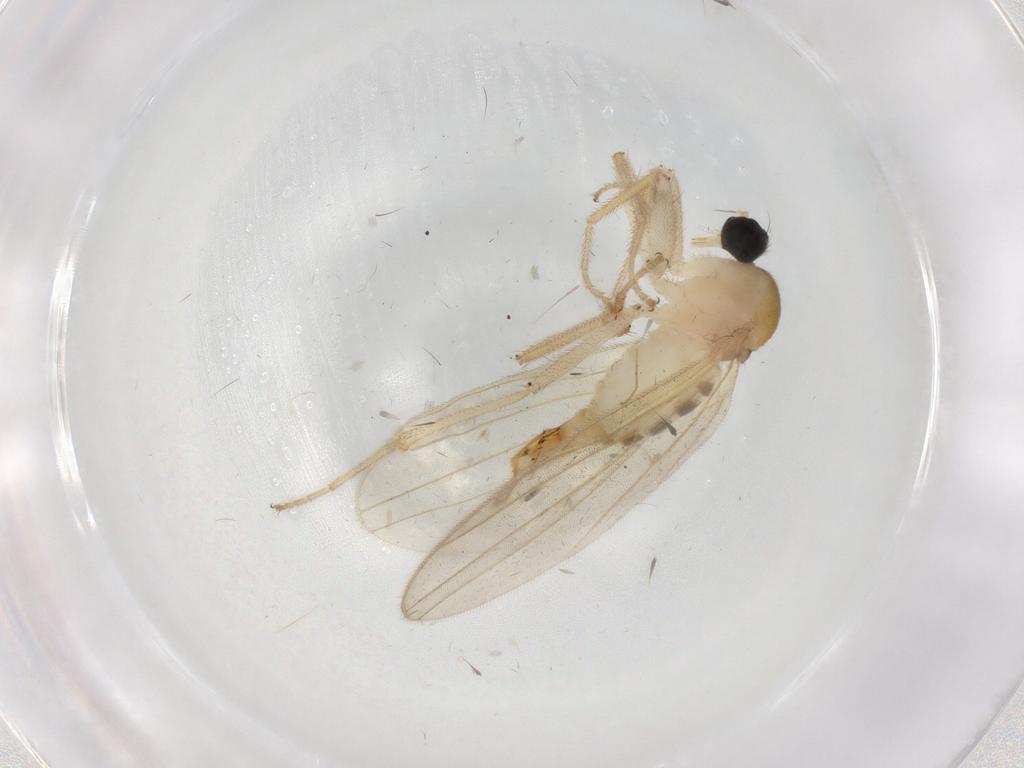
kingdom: Animalia
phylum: Arthropoda
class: Insecta
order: Diptera
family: Hybotidae
